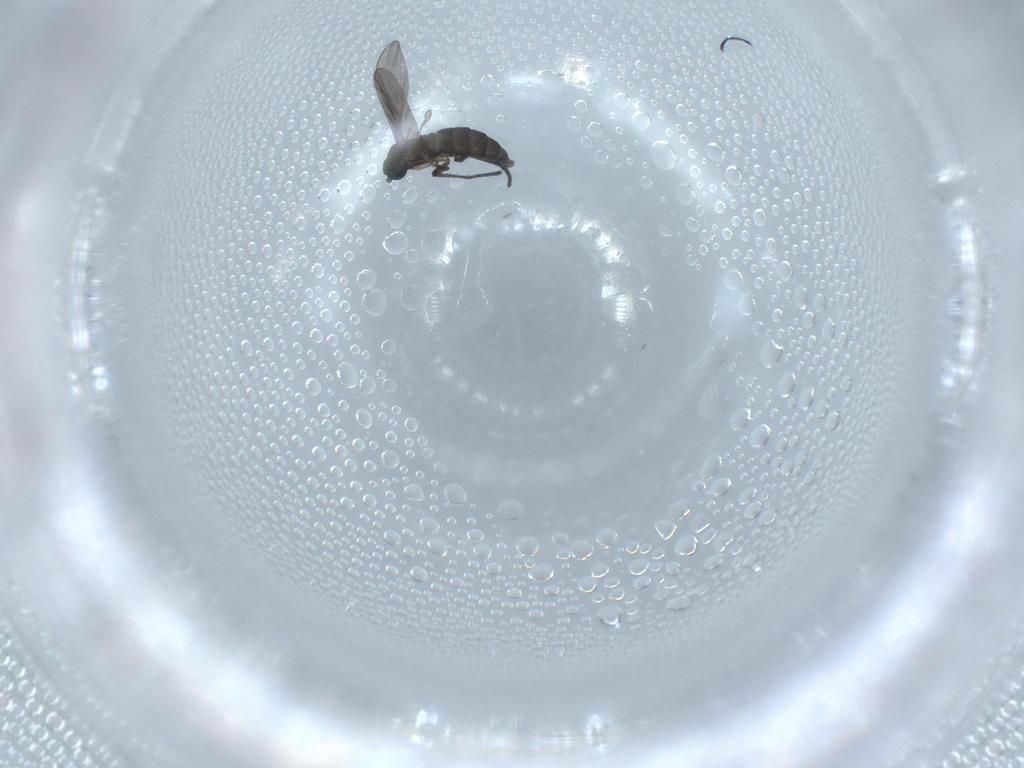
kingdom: Animalia
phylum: Arthropoda
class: Insecta
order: Diptera
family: Sciaridae
